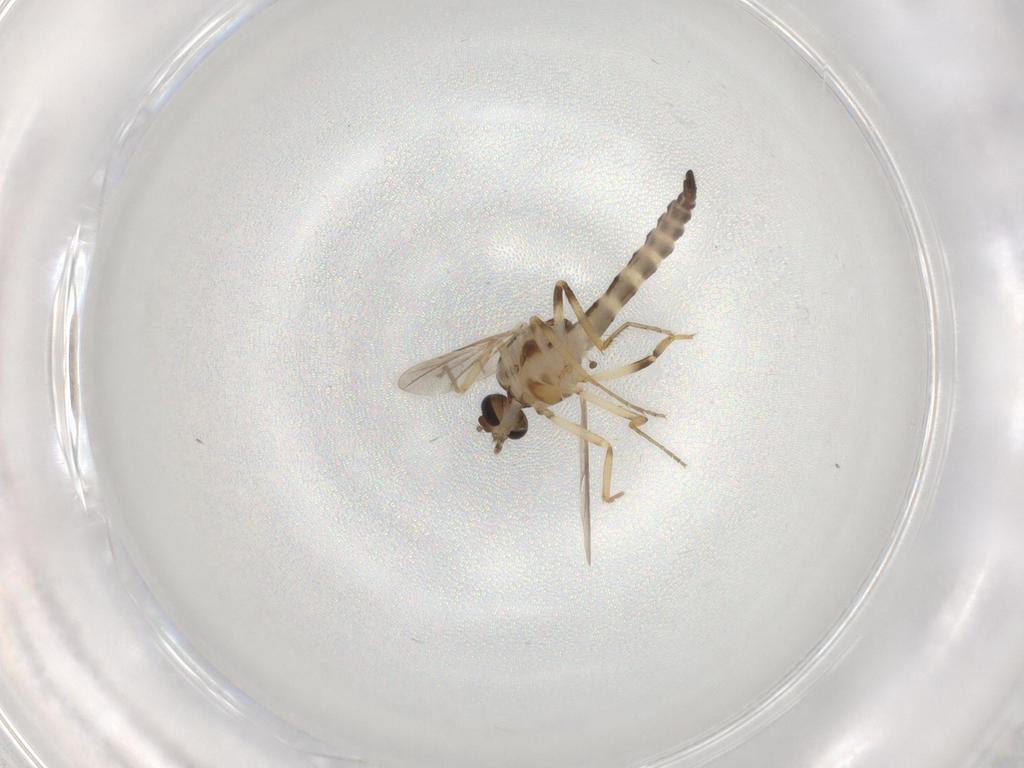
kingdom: Animalia
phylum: Arthropoda
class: Insecta
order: Diptera
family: Ceratopogonidae
